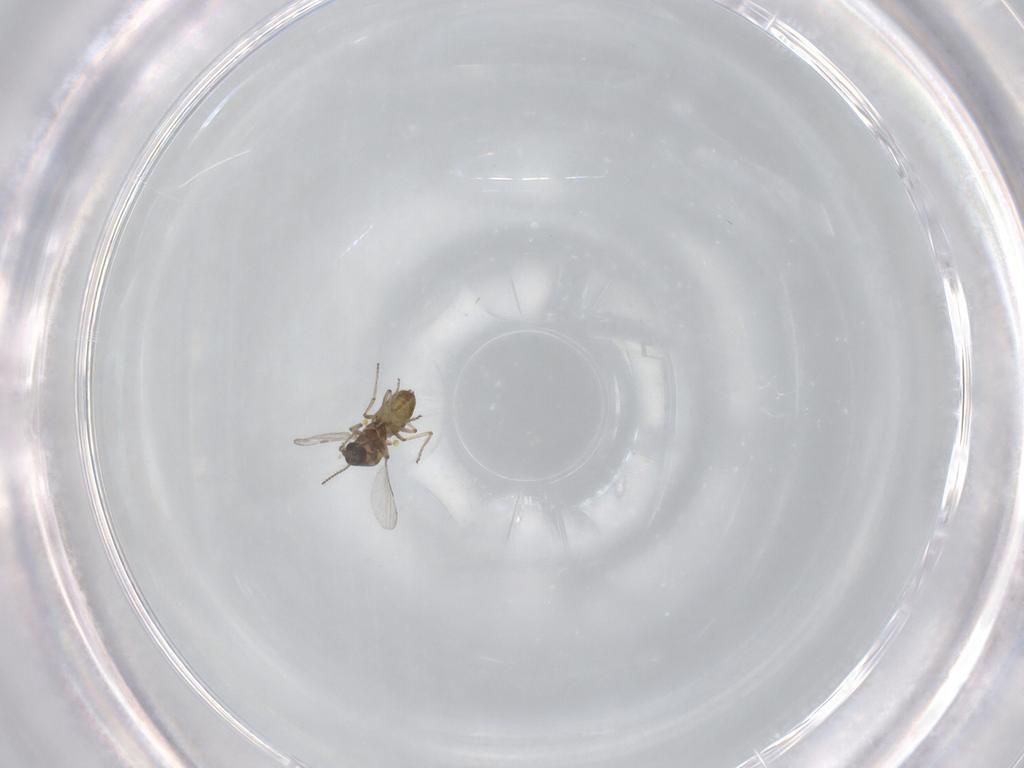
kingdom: Animalia
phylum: Arthropoda
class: Insecta
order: Diptera
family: Ceratopogonidae
